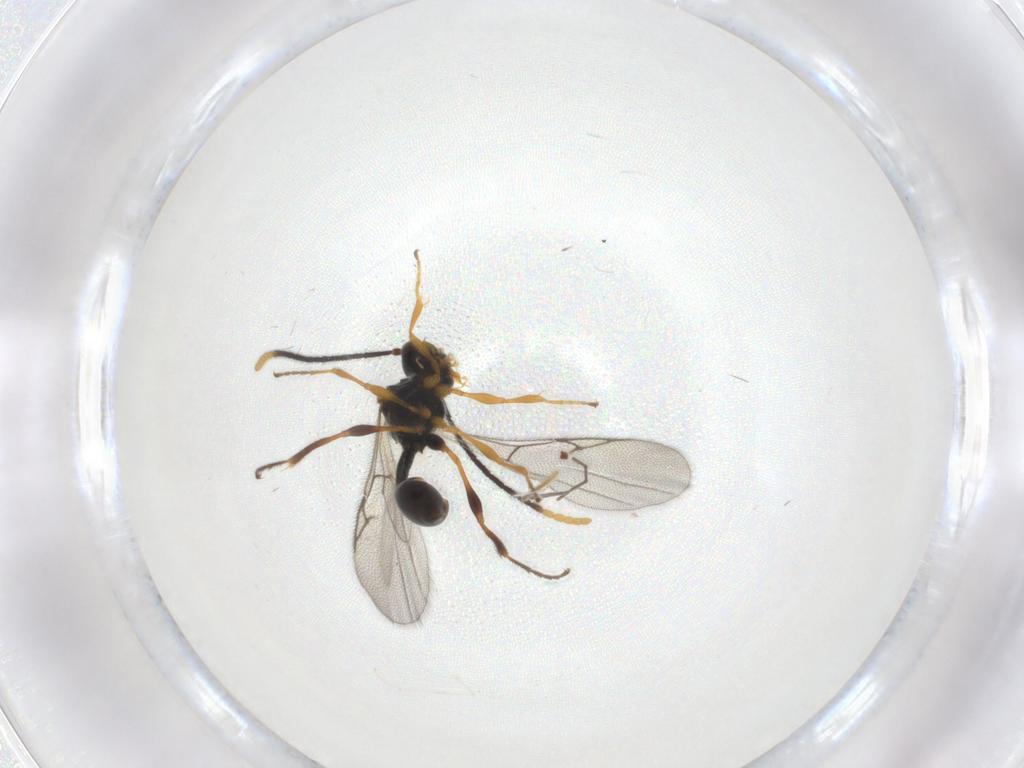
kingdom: Animalia
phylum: Arthropoda
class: Insecta
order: Hymenoptera
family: Diapriidae
